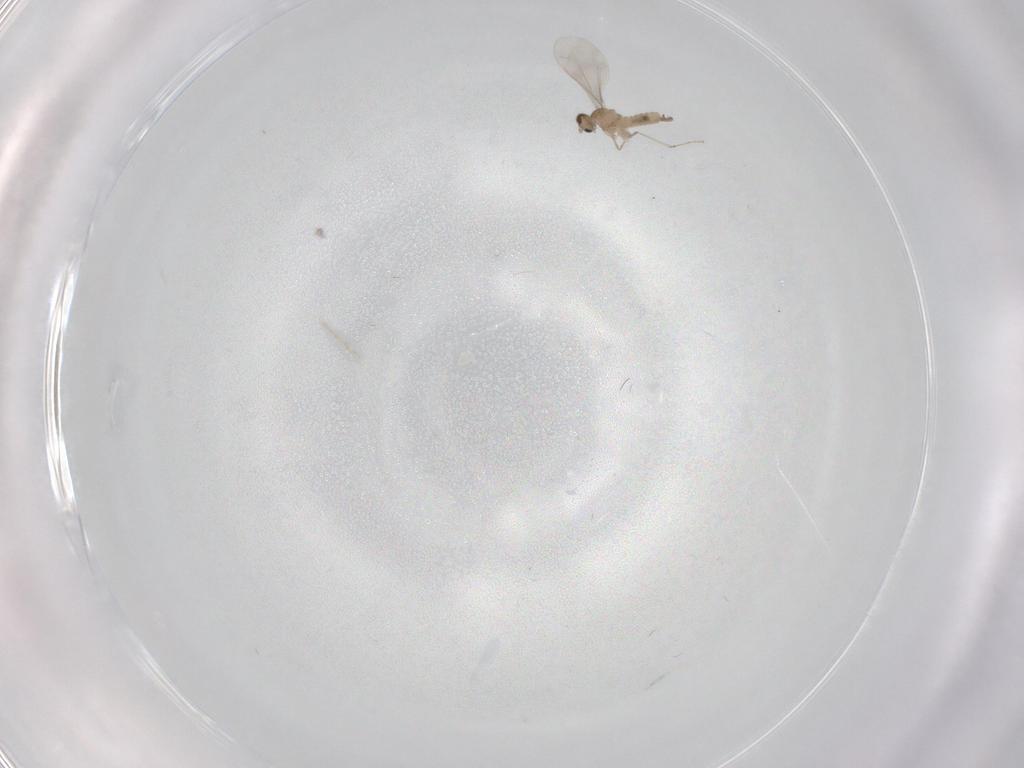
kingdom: Animalia
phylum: Arthropoda
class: Insecta
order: Diptera
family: Cecidomyiidae
